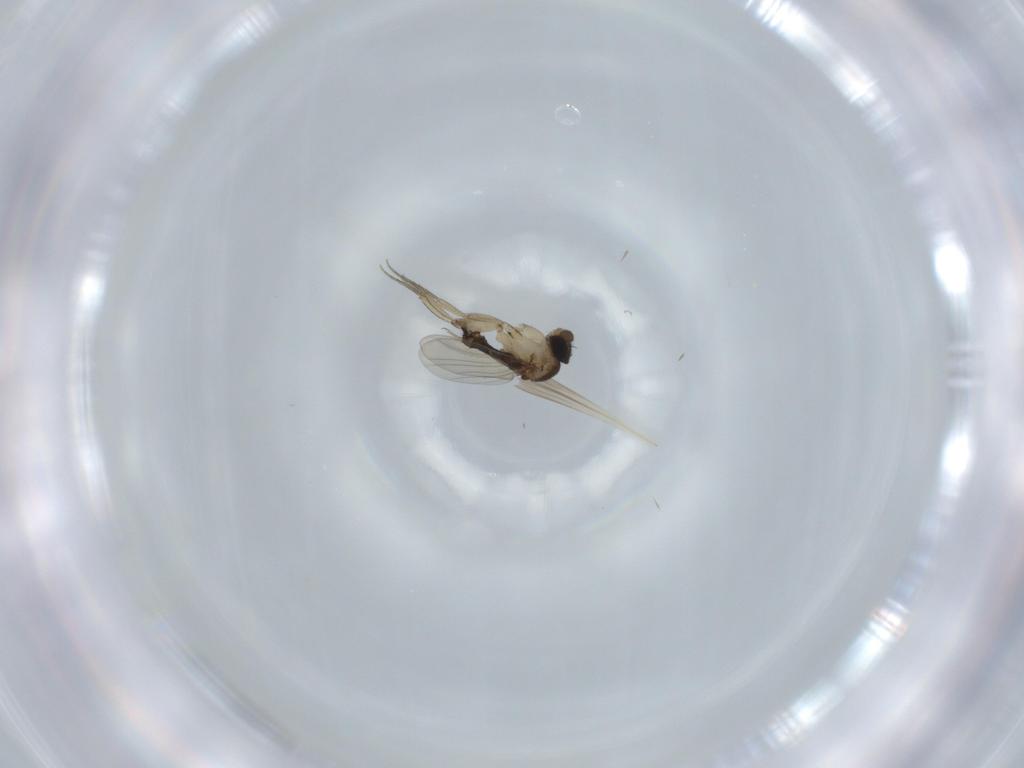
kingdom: Animalia
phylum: Arthropoda
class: Insecta
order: Diptera
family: Phoridae
